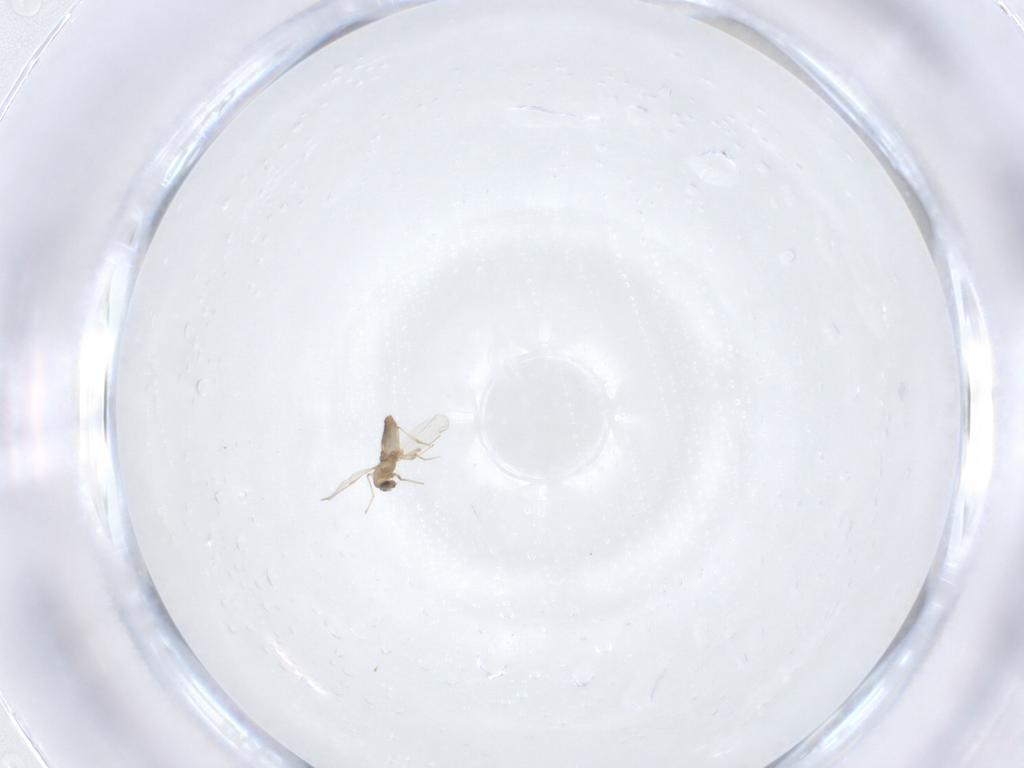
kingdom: Animalia
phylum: Arthropoda
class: Insecta
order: Diptera
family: Chironomidae
